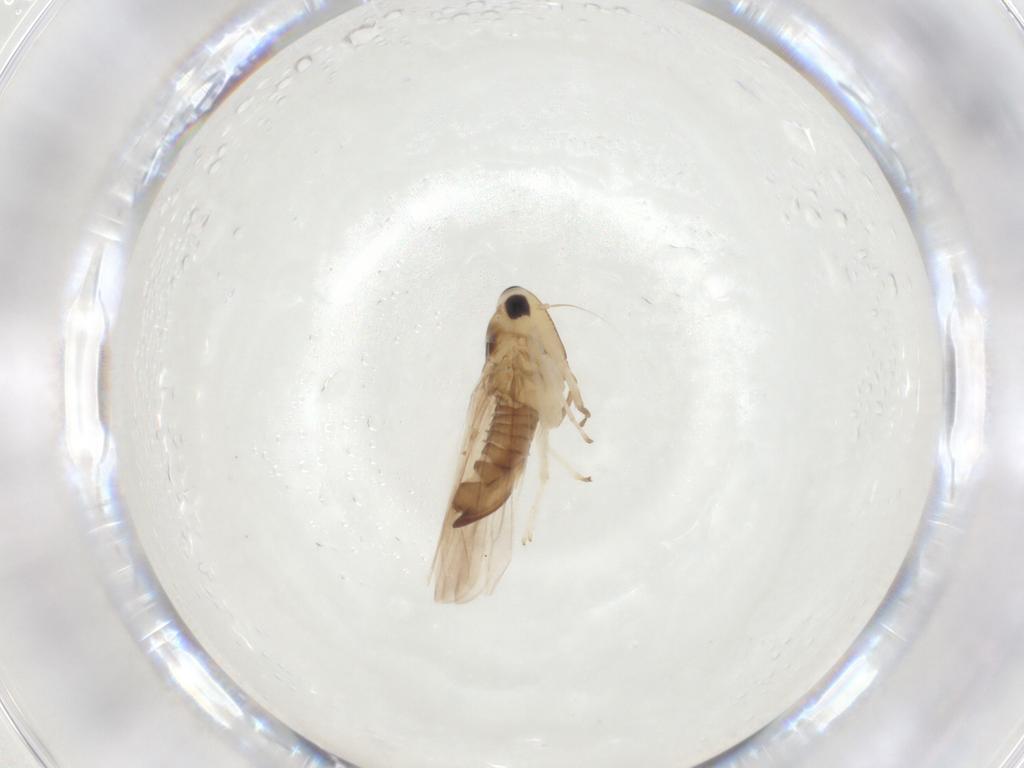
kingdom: Animalia
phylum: Arthropoda
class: Insecta
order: Hemiptera
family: Cicadellidae
